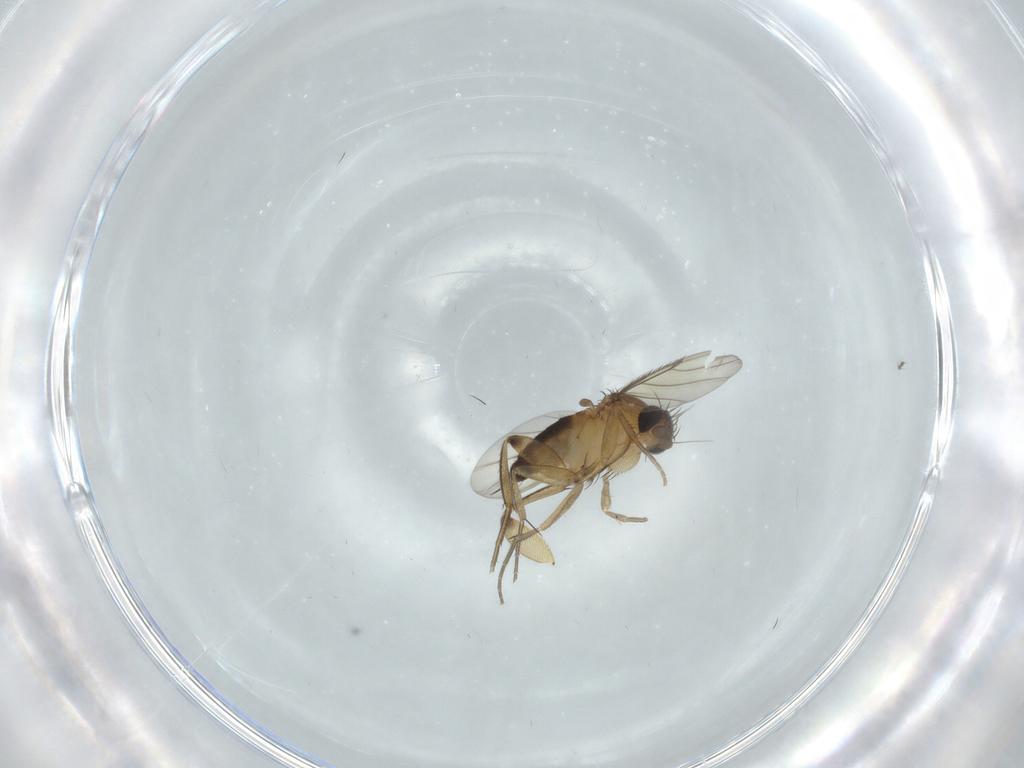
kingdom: Animalia
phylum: Arthropoda
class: Insecta
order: Diptera
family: Phoridae
